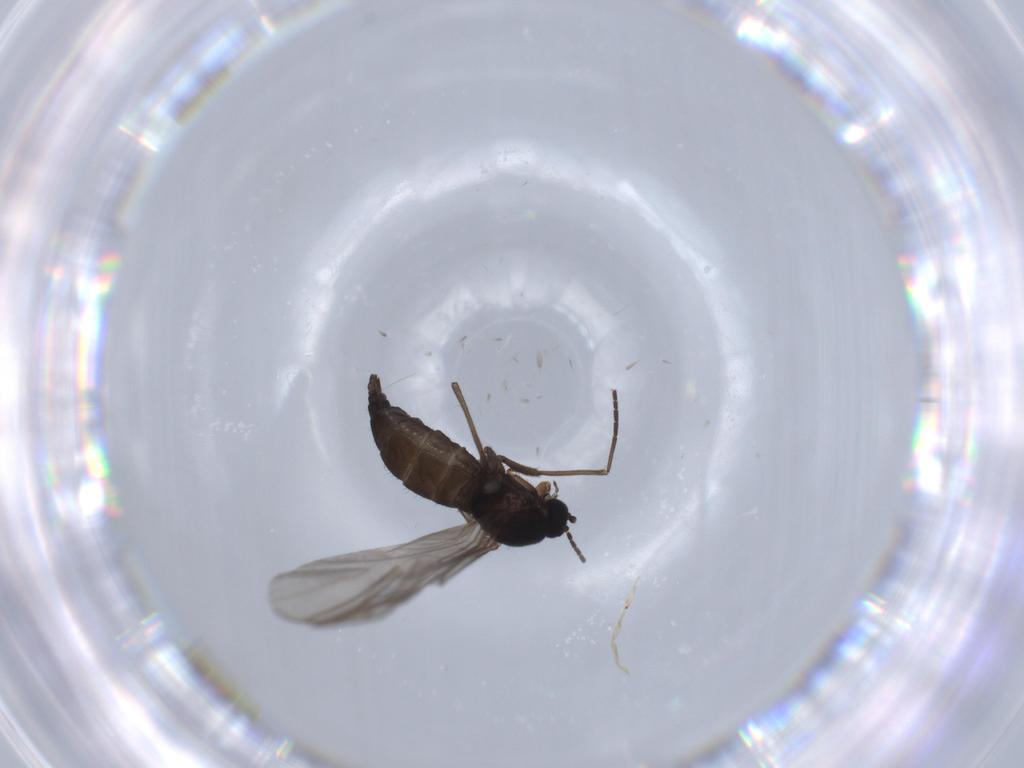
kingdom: Animalia
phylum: Arthropoda
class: Insecta
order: Diptera
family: Sciaridae
